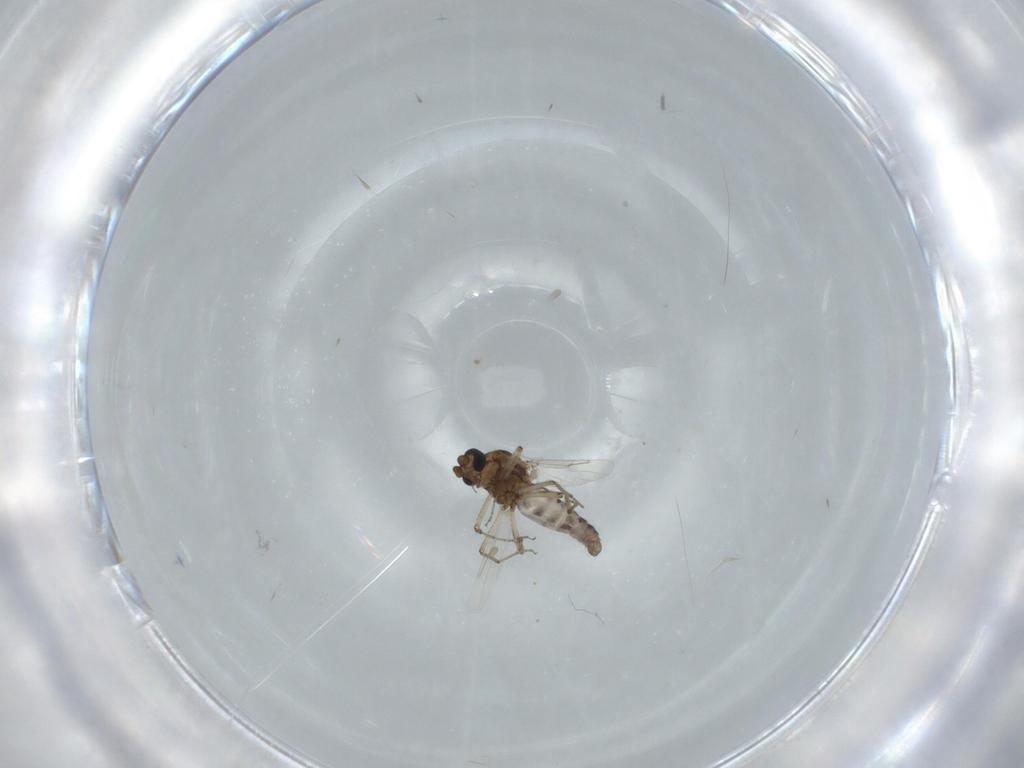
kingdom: Animalia
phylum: Arthropoda
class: Insecta
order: Diptera
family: Ceratopogonidae
